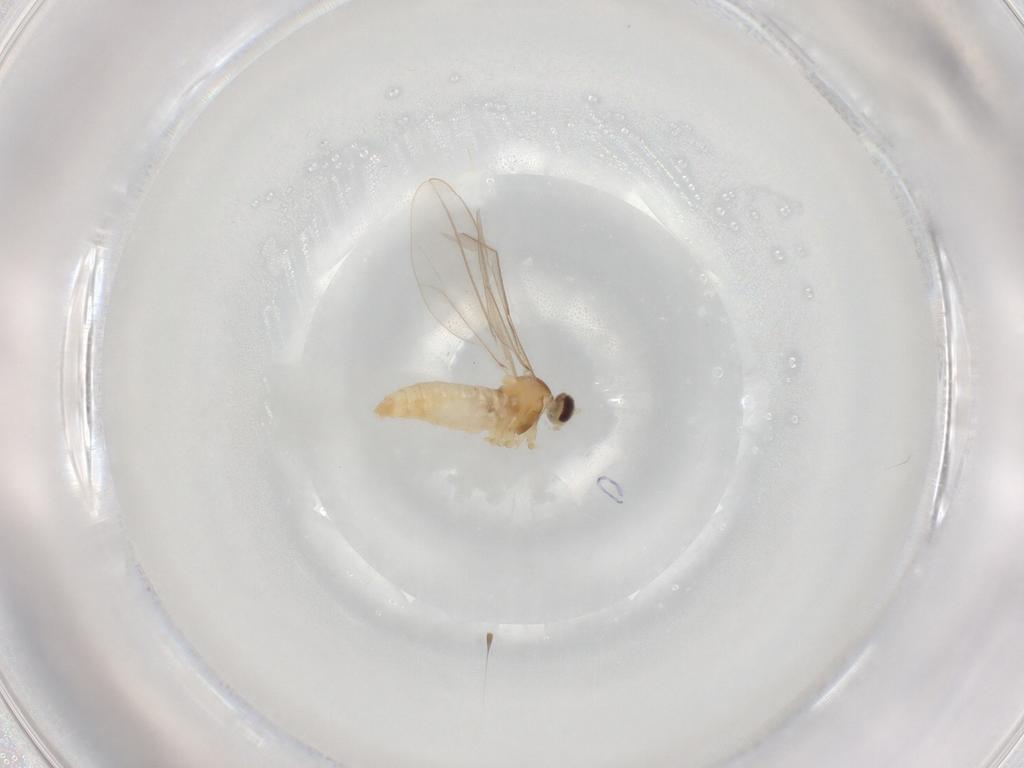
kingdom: Animalia
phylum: Arthropoda
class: Insecta
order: Diptera
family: Cecidomyiidae
